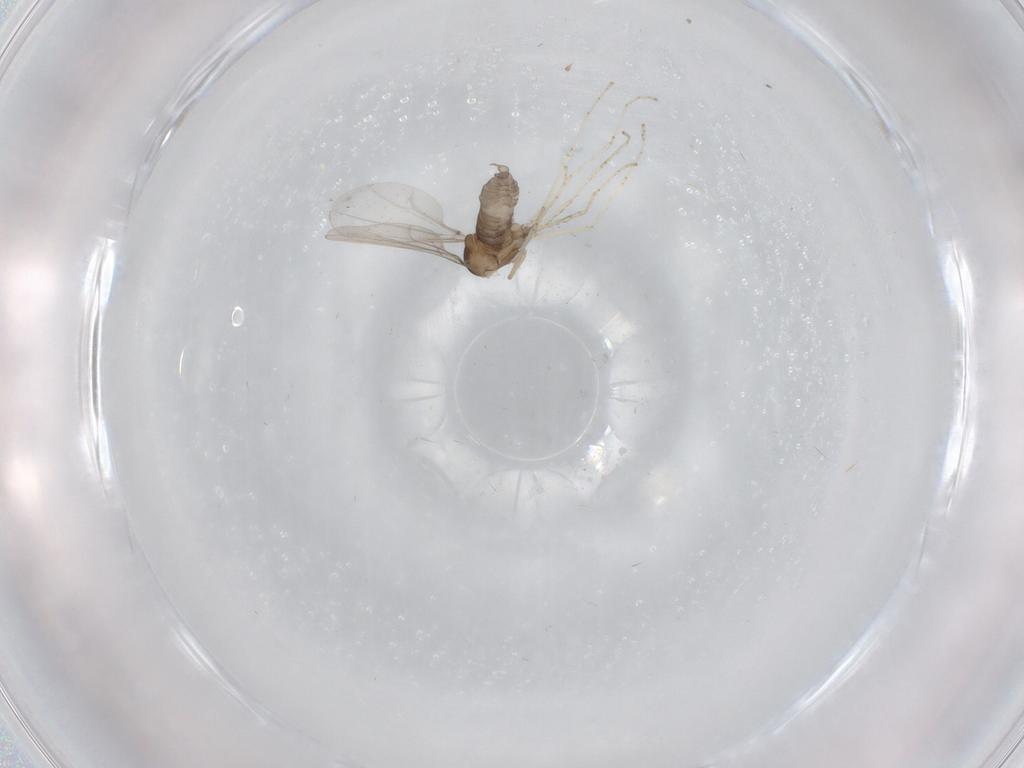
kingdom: Animalia
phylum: Arthropoda
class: Insecta
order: Diptera
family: Cecidomyiidae
